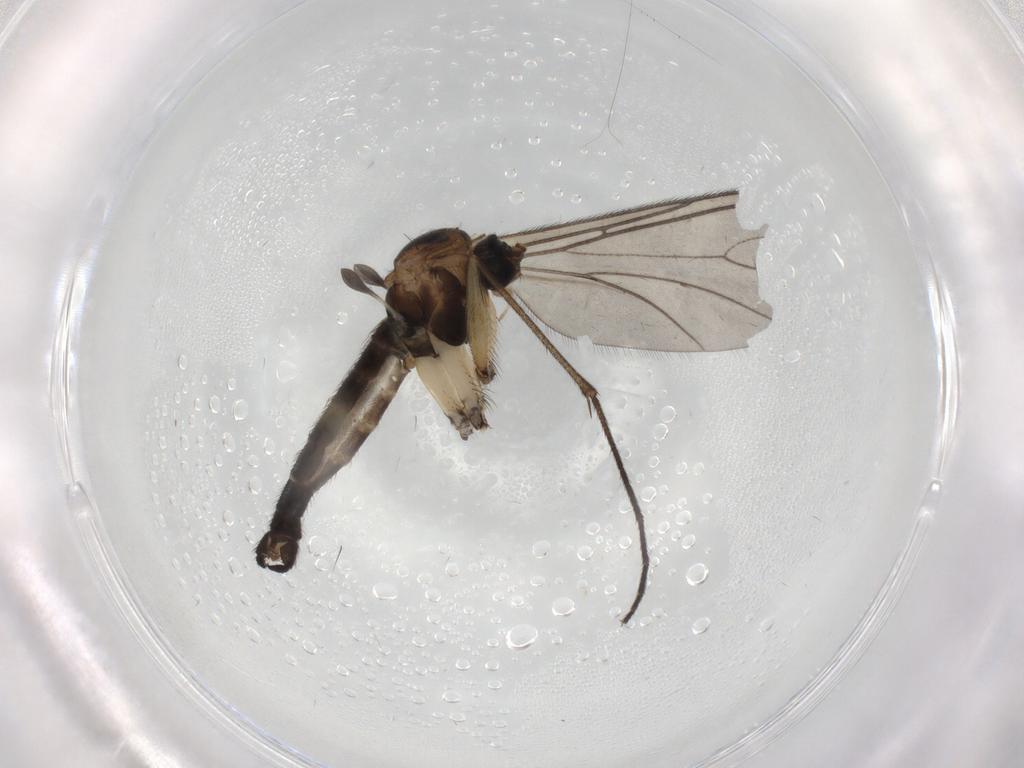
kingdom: Animalia
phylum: Arthropoda
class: Insecta
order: Diptera
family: Sciaridae
